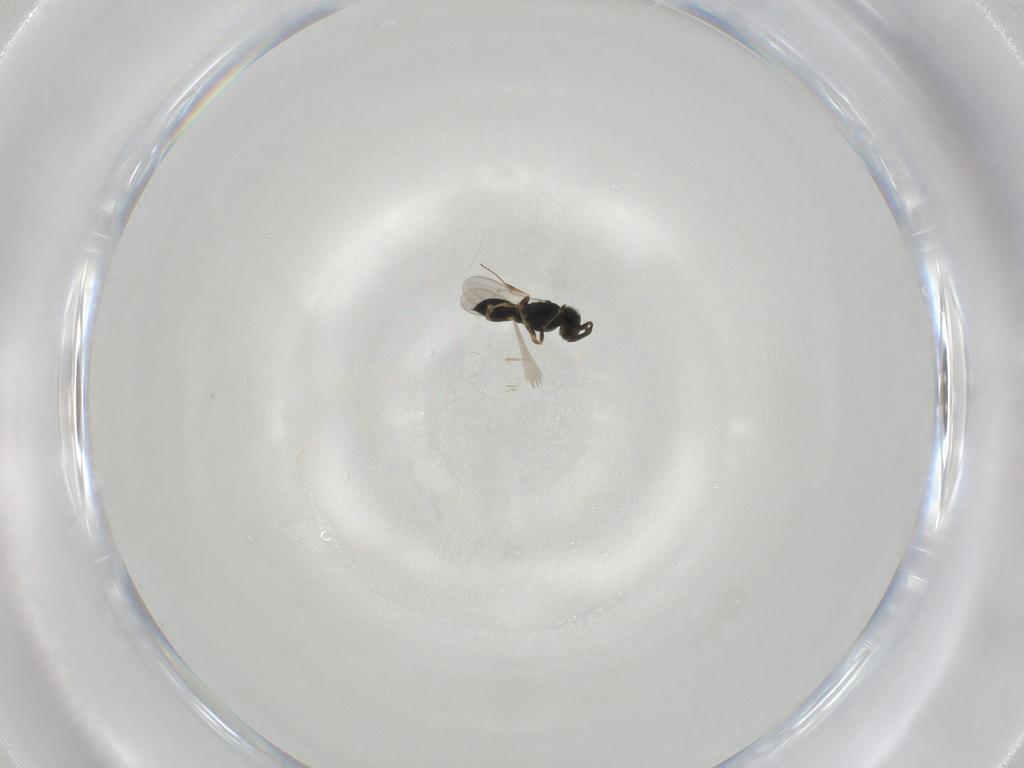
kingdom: Animalia
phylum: Arthropoda
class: Insecta
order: Hymenoptera
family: Scelionidae
